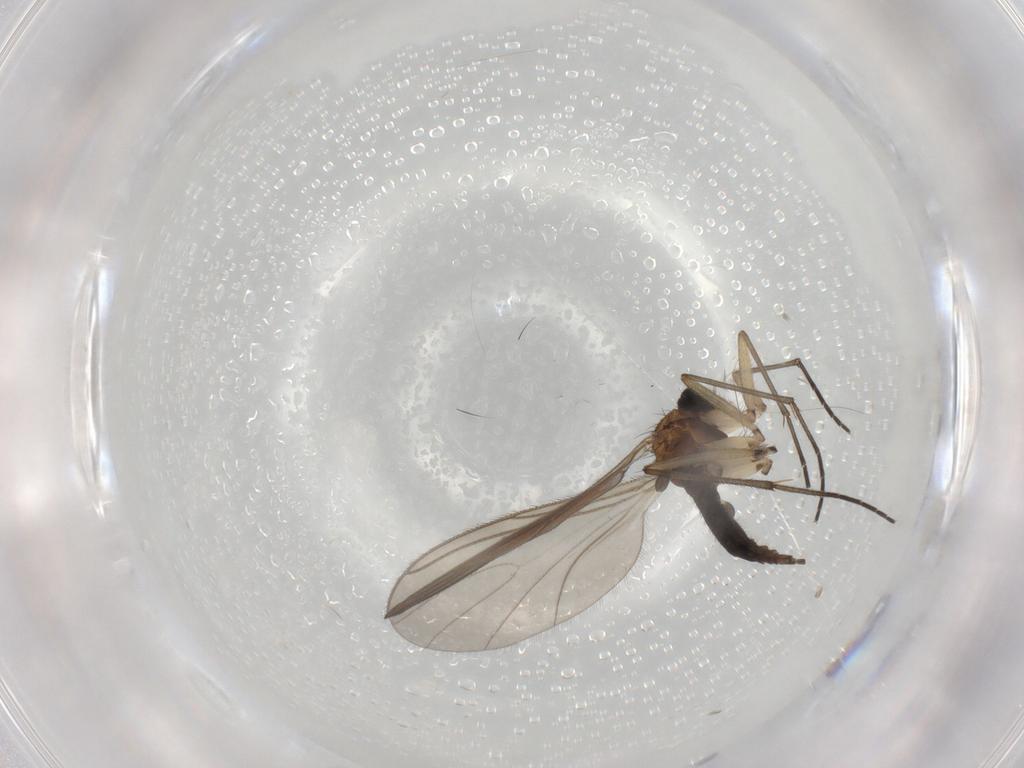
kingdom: Animalia
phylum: Arthropoda
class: Insecta
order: Diptera
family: Sciaridae
